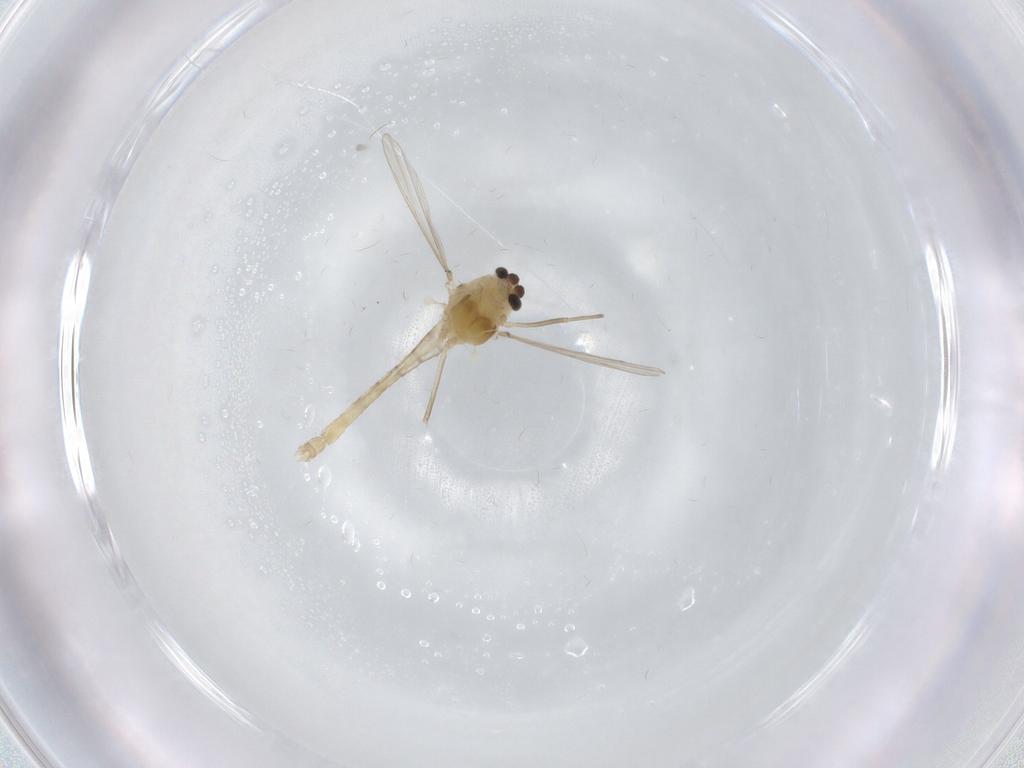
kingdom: Animalia
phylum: Arthropoda
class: Insecta
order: Diptera
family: Chironomidae
